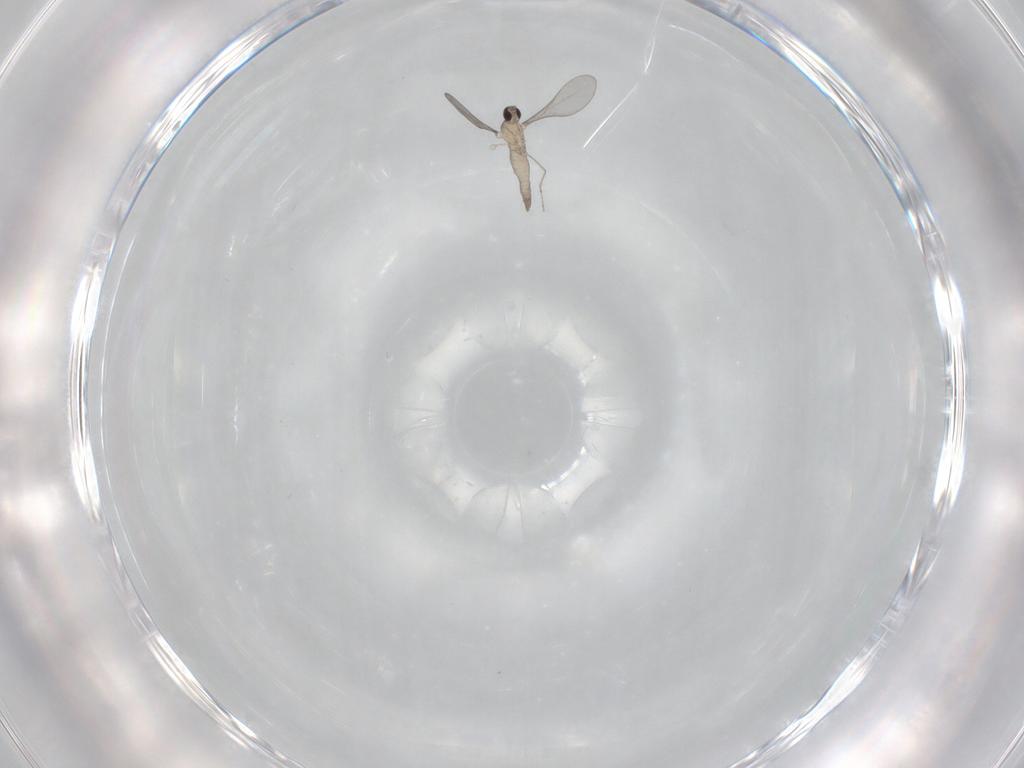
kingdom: Animalia
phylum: Arthropoda
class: Insecta
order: Diptera
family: Cecidomyiidae
